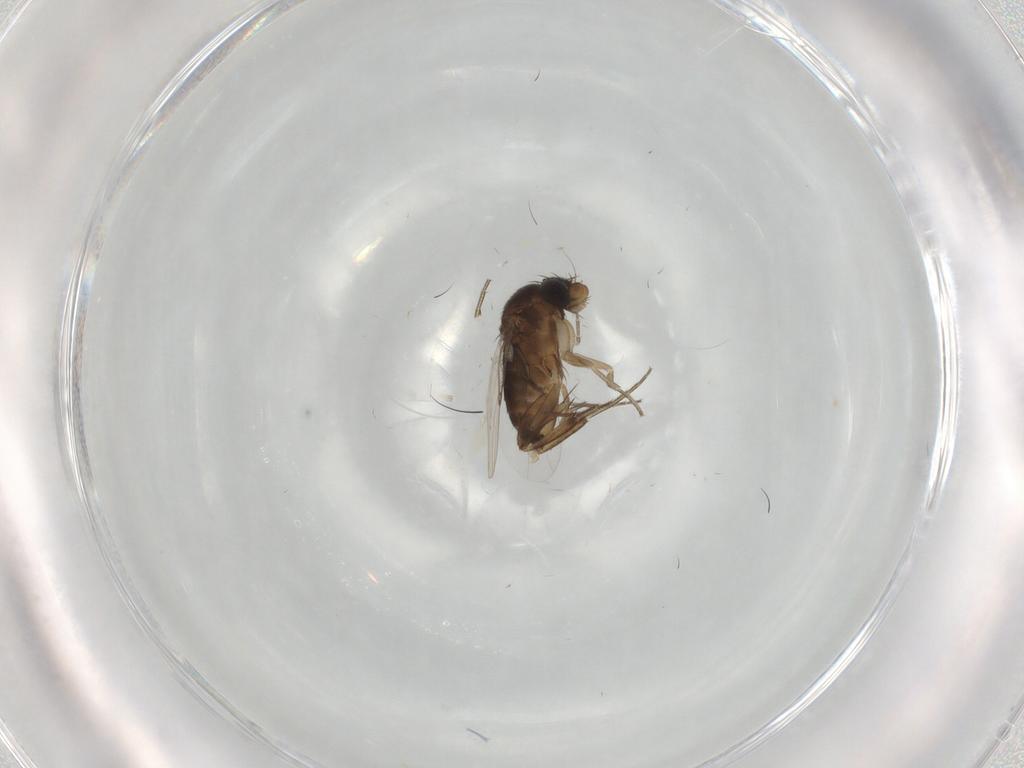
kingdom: Animalia
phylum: Arthropoda
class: Insecta
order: Diptera
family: Phoridae
